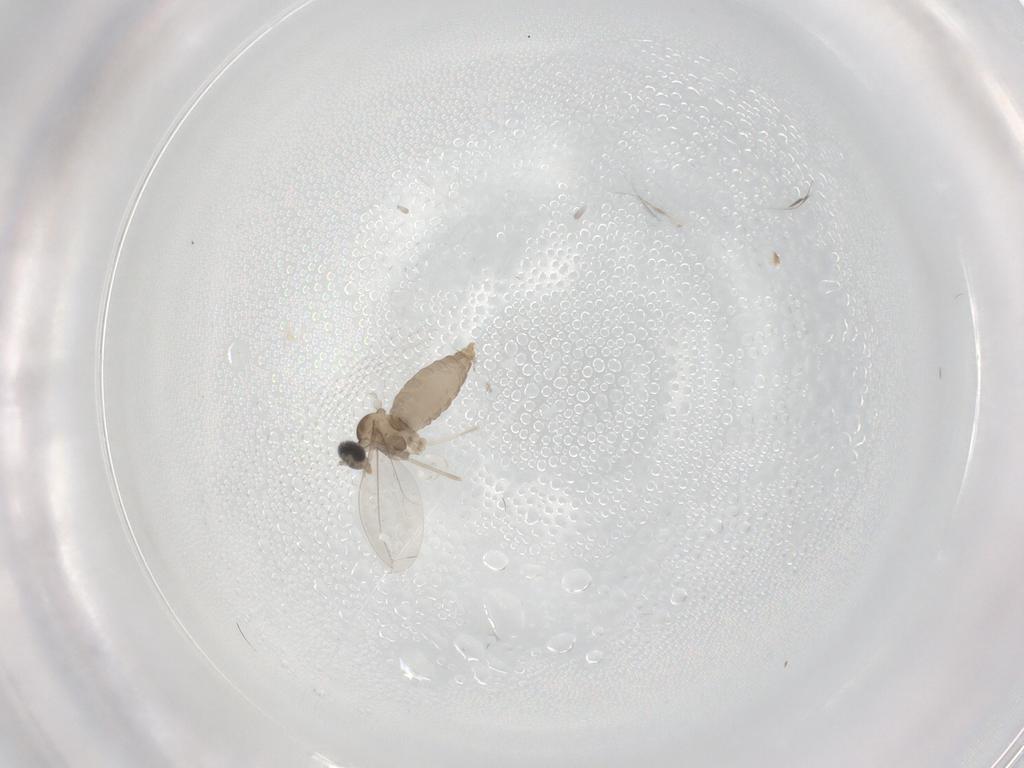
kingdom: Animalia
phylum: Arthropoda
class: Insecta
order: Diptera
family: Cecidomyiidae
